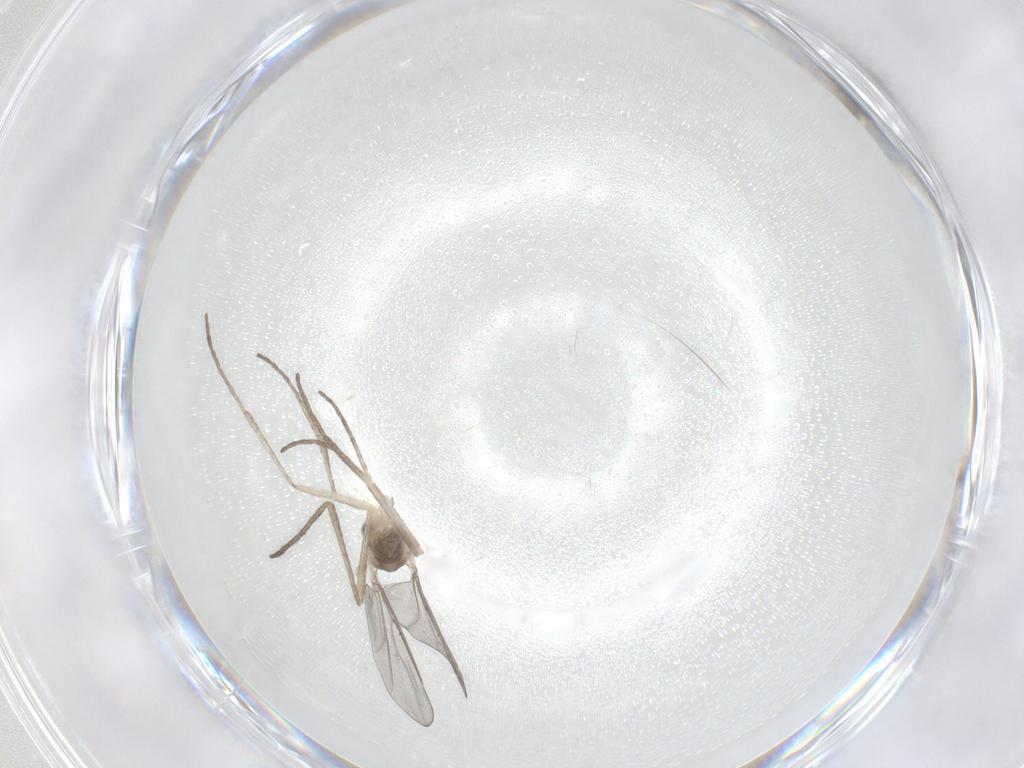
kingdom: Animalia
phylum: Arthropoda
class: Insecta
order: Diptera
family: Cecidomyiidae
